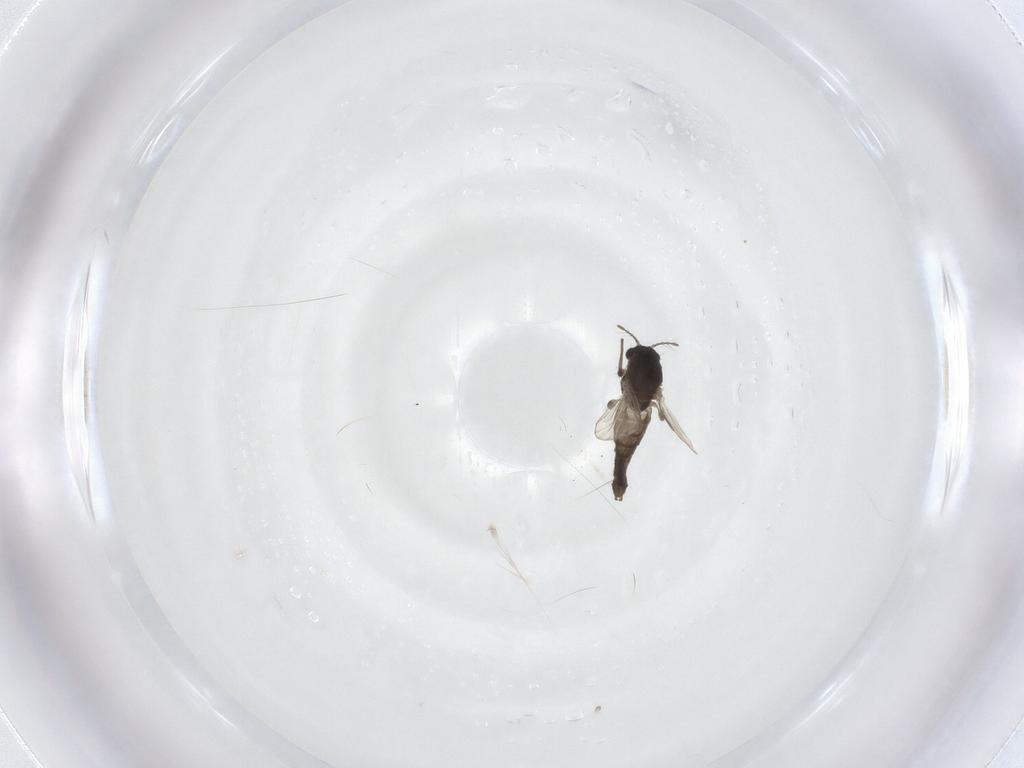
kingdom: Animalia
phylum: Arthropoda
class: Insecta
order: Diptera
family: Chironomidae
